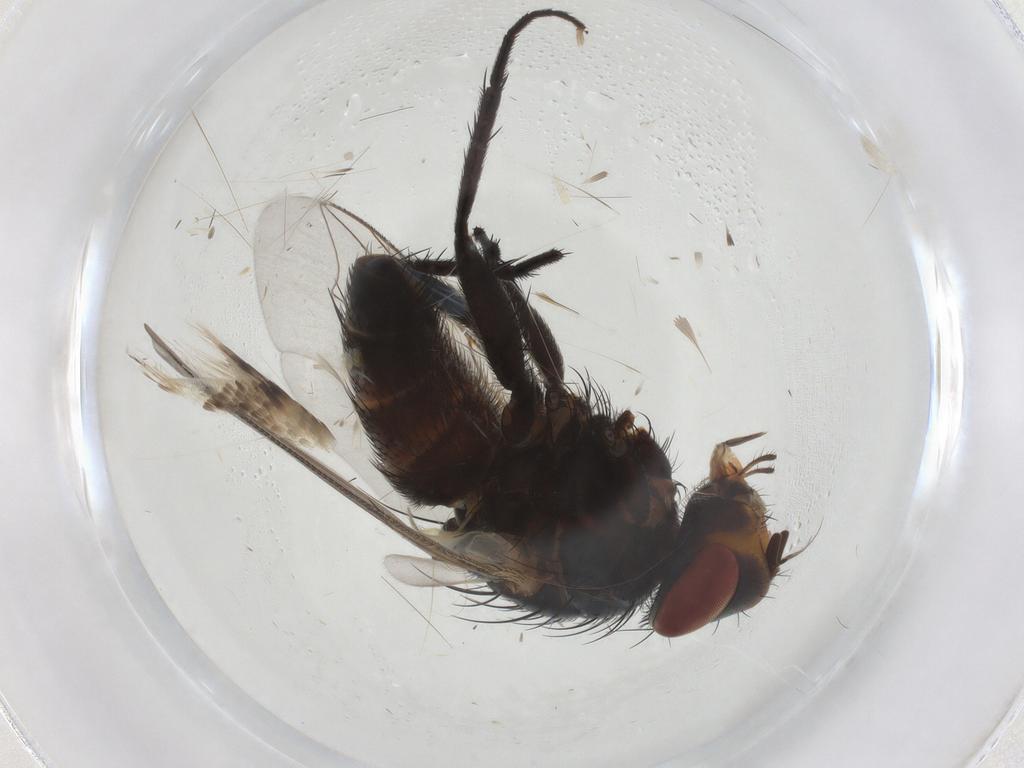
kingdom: Animalia
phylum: Arthropoda
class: Insecta
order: Diptera
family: Sarcophagidae
